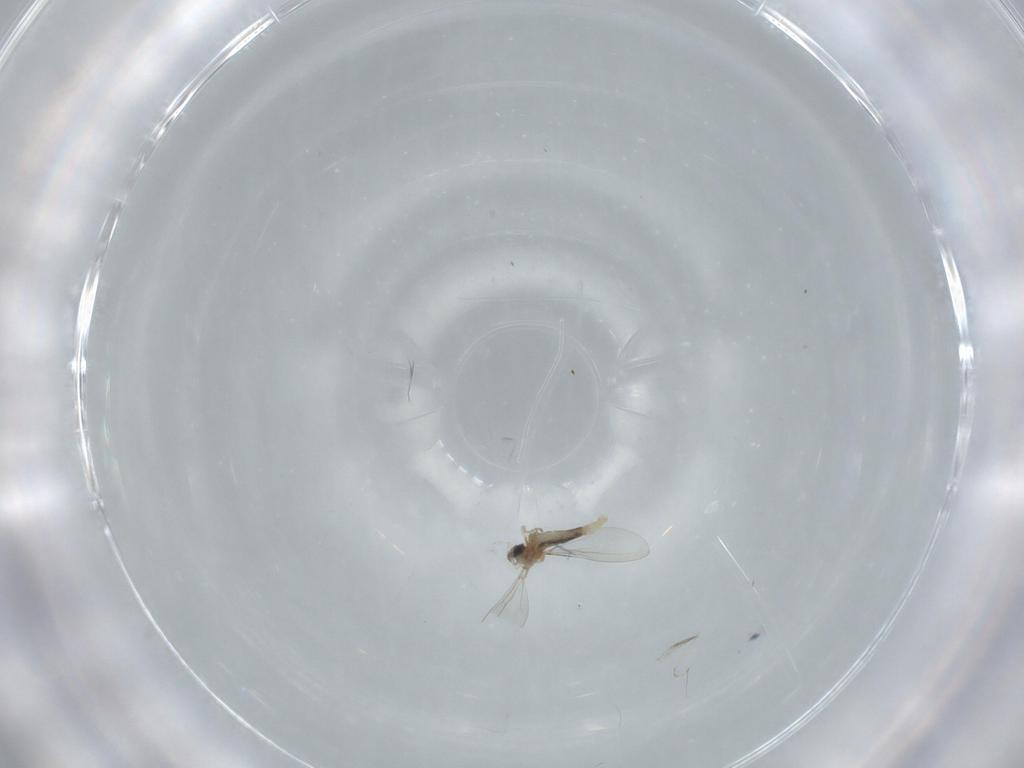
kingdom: Animalia
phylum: Arthropoda
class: Insecta
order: Diptera
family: Cecidomyiidae
